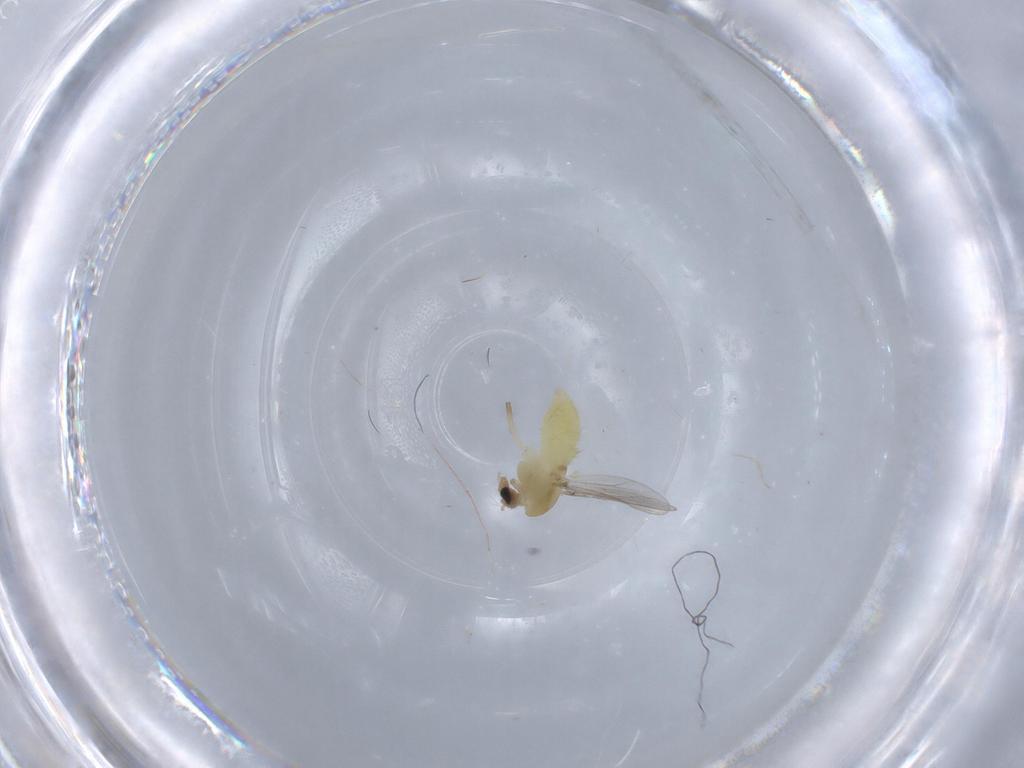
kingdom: Animalia
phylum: Arthropoda
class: Insecta
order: Diptera
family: Chironomidae
